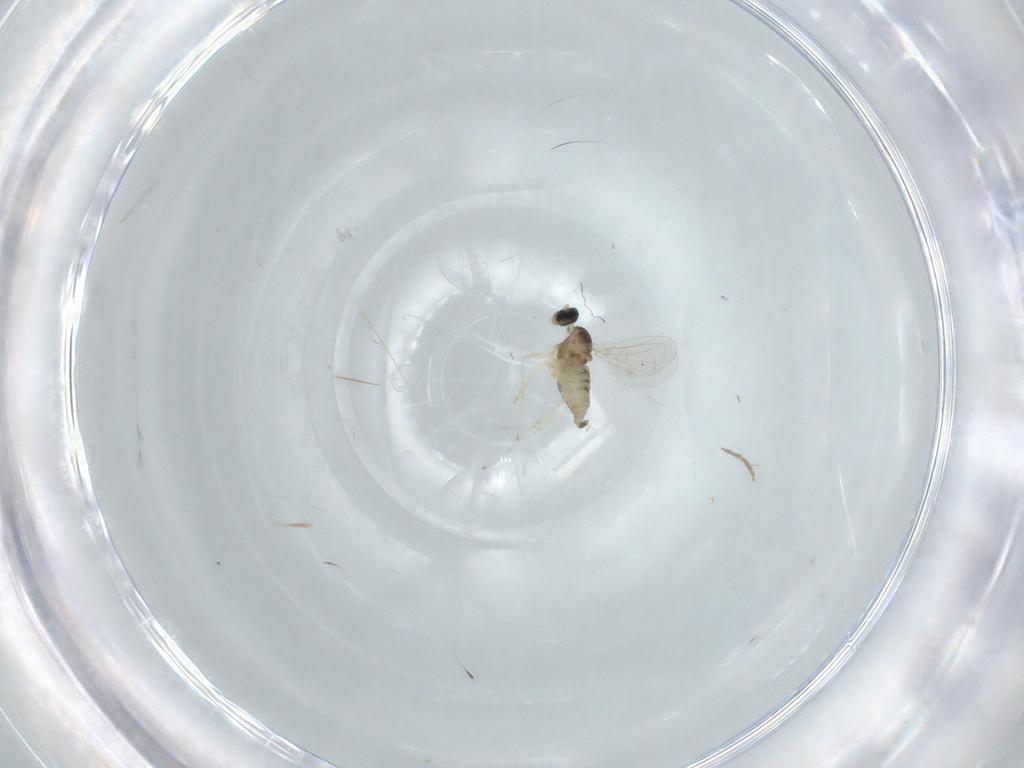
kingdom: Animalia
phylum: Arthropoda
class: Insecta
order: Diptera
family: Cecidomyiidae
